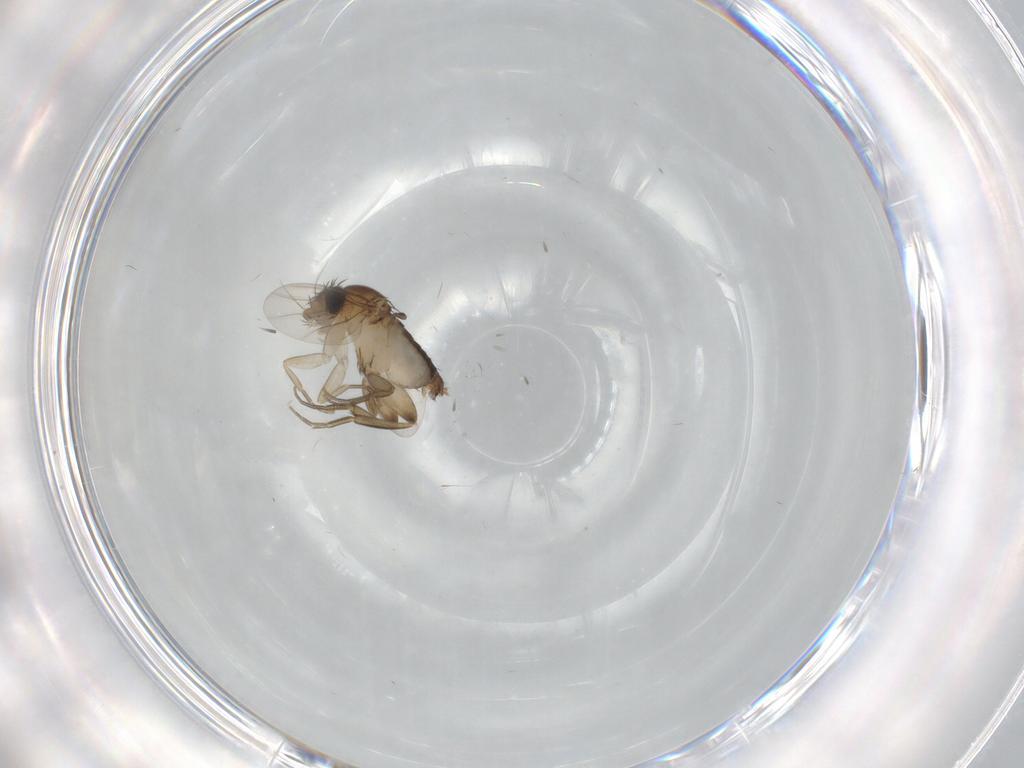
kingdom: Animalia
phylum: Arthropoda
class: Insecta
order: Diptera
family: Phoridae
